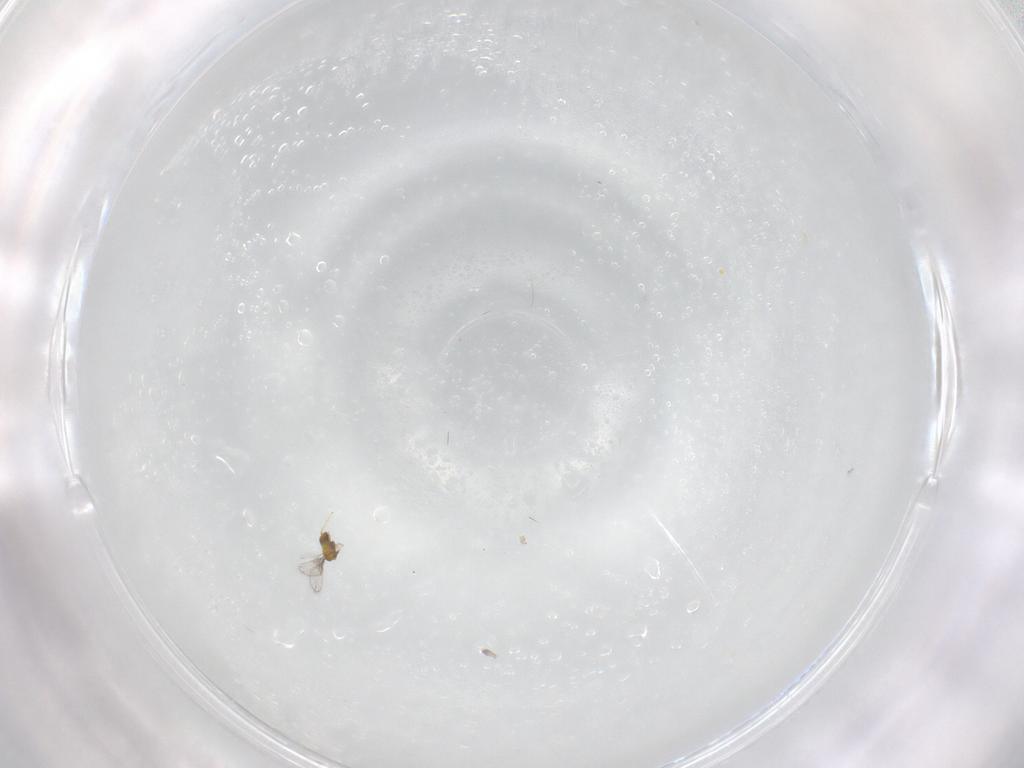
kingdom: Animalia
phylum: Arthropoda
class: Insecta
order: Hymenoptera
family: Trichogrammatidae
